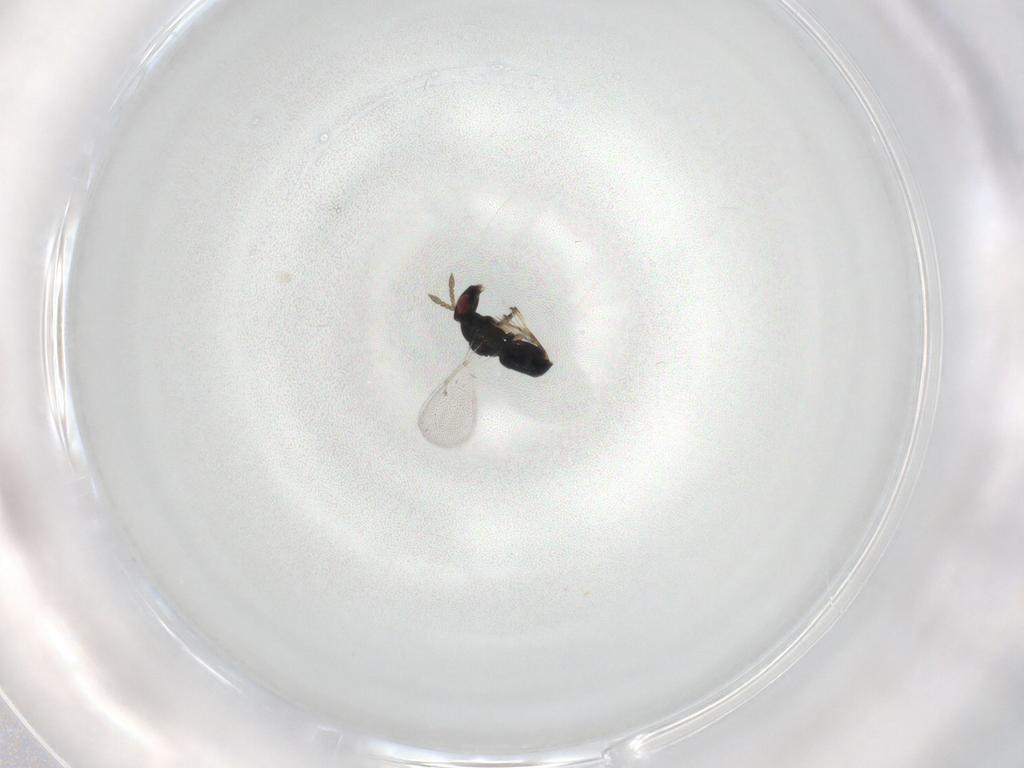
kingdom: Animalia
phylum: Arthropoda
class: Insecta
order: Hymenoptera
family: Eulophidae
